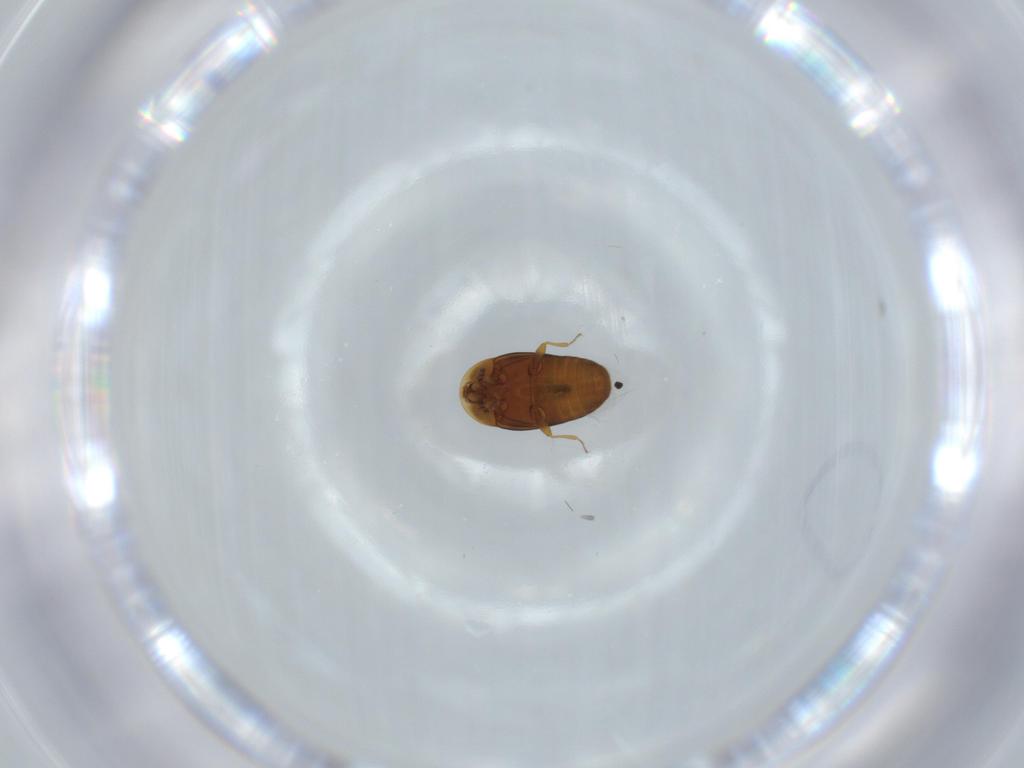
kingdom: Animalia
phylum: Arthropoda
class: Insecta
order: Coleoptera
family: Corylophidae
